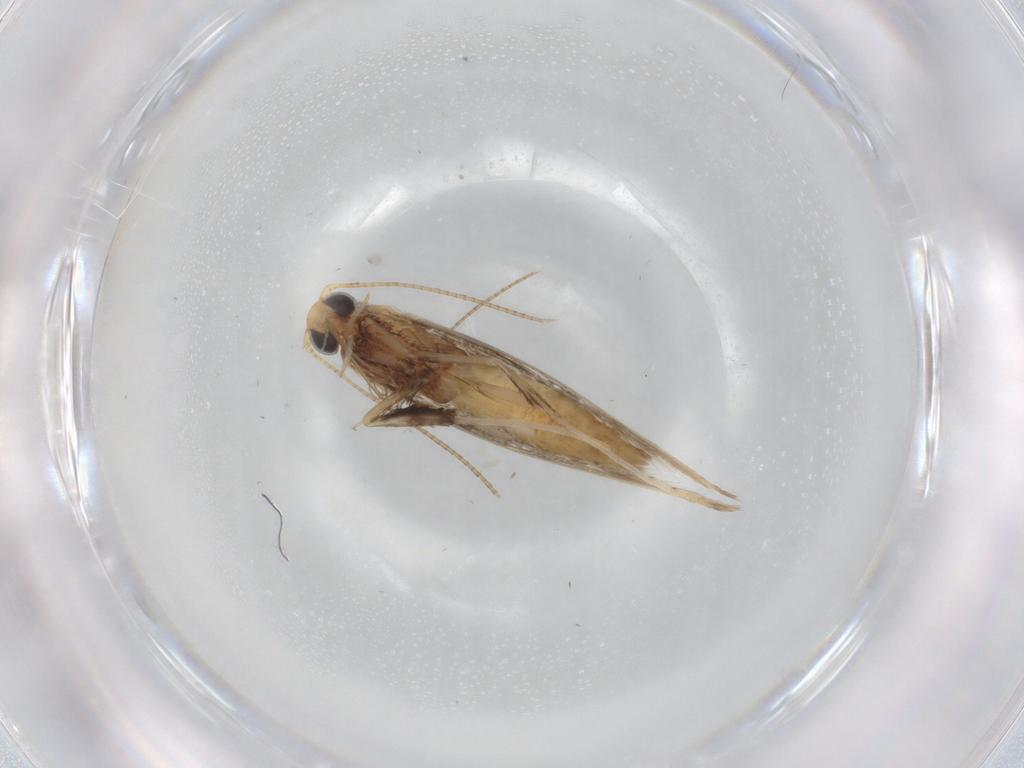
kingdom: Animalia
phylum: Arthropoda
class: Insecta
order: Lepidoptera
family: Gracillariidae
